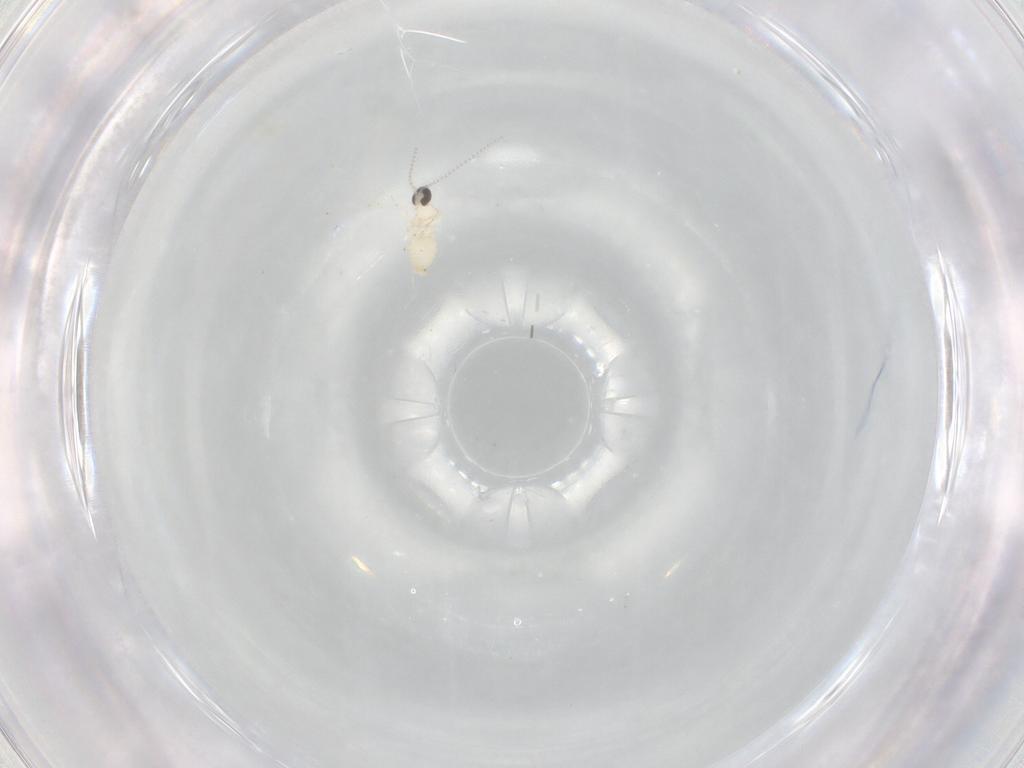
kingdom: Animalia
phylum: Arthropoda
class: Insecta
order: Diptera
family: Cecidomyiidae
